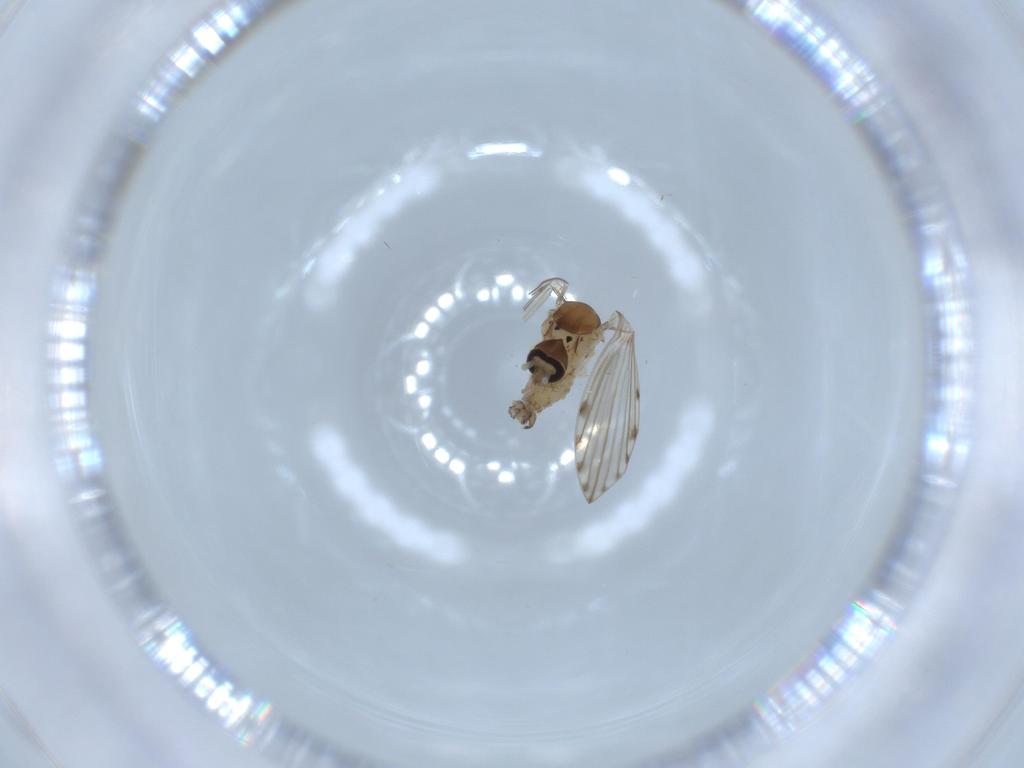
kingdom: Animalia
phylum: Arthropoda
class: Insecta
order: Diptera
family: Psychodidae
